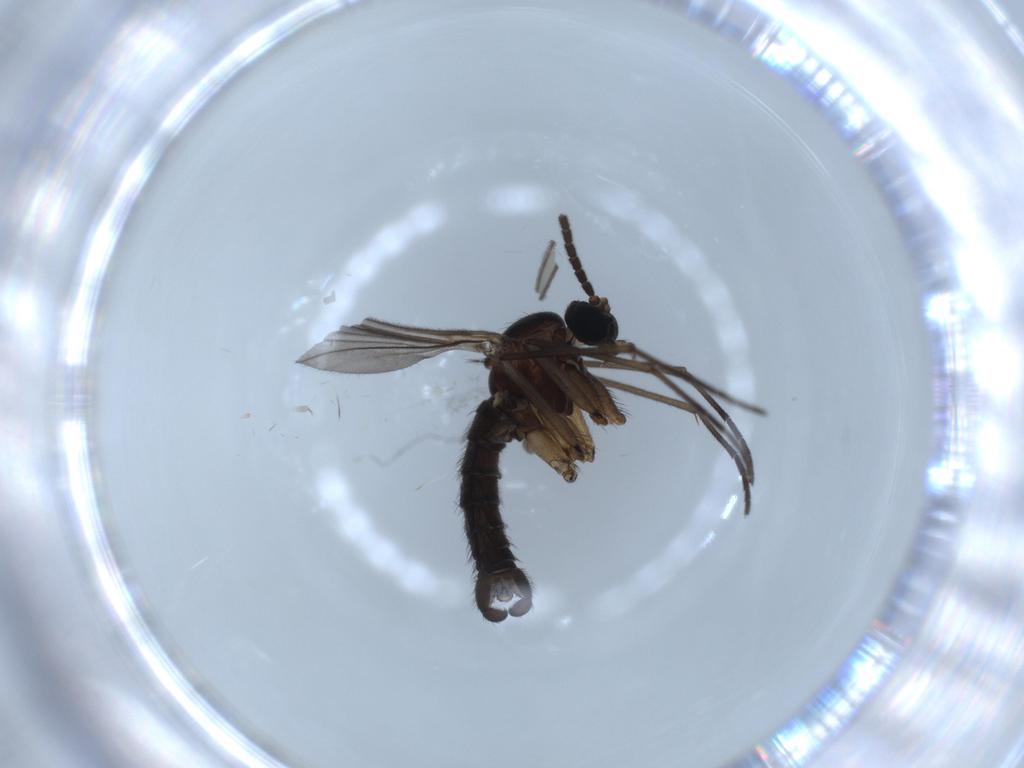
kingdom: Animalia
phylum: Arthropoda
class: Insecta
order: Diptera
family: Sciaridae
